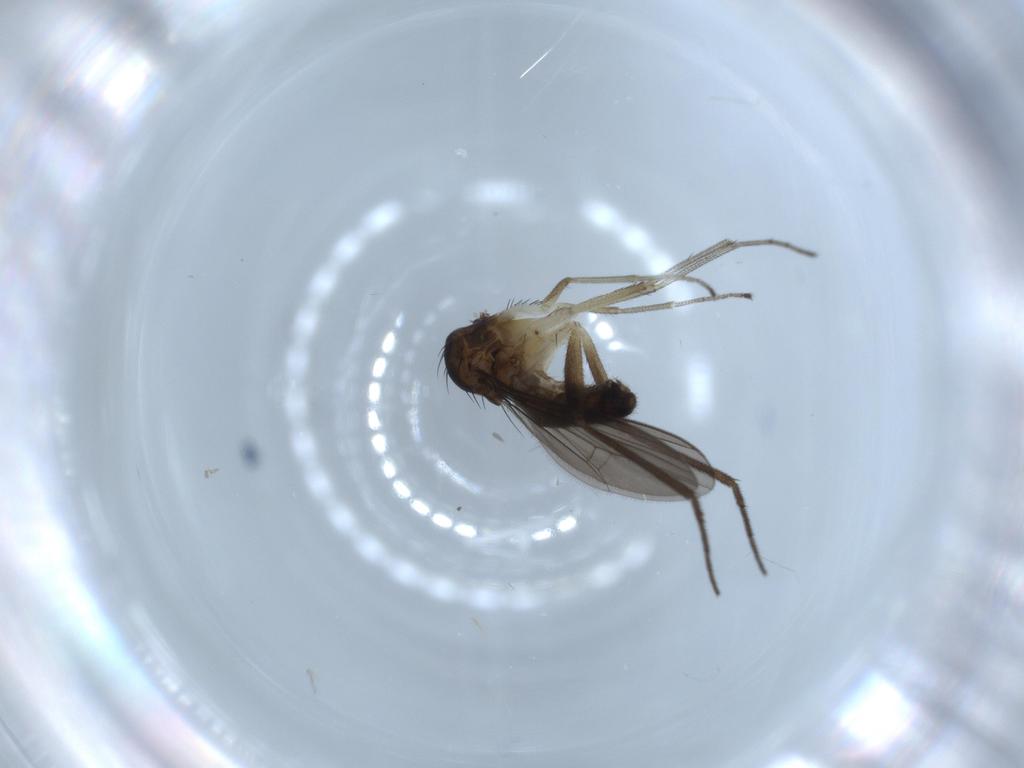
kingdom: Animalia
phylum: Arthropoda
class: Insecta
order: Diptera
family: Dolichopodidae
